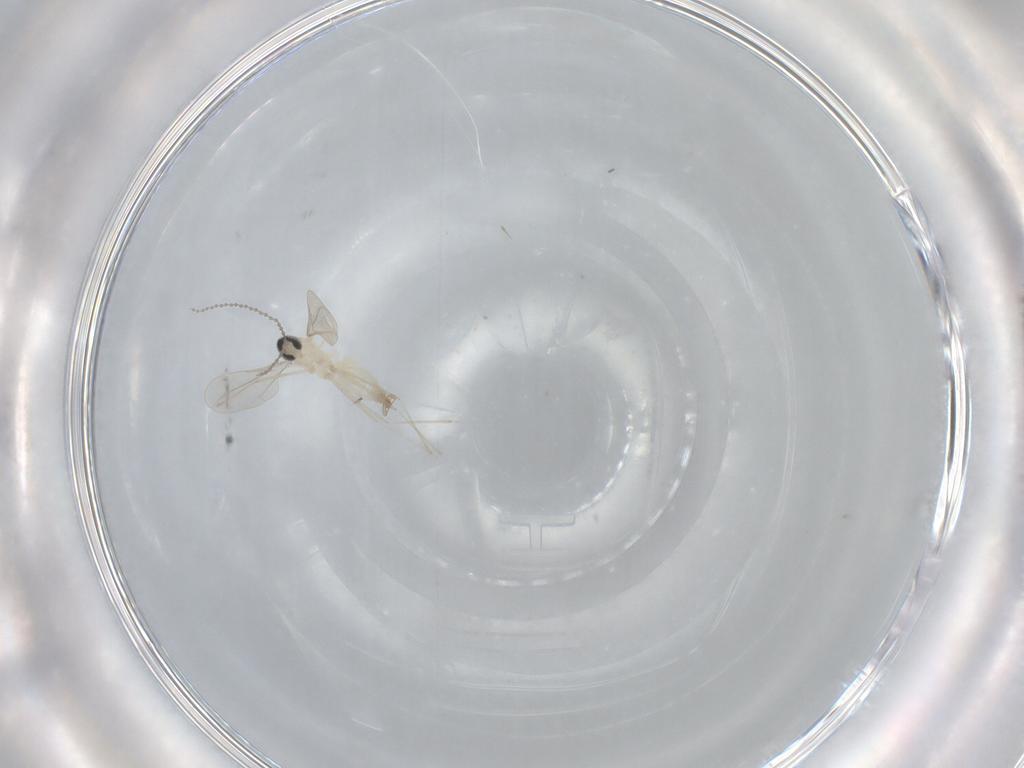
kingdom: Animalia
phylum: Arthropoda
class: Insecta
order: Diptera
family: Cecidomyiidae
